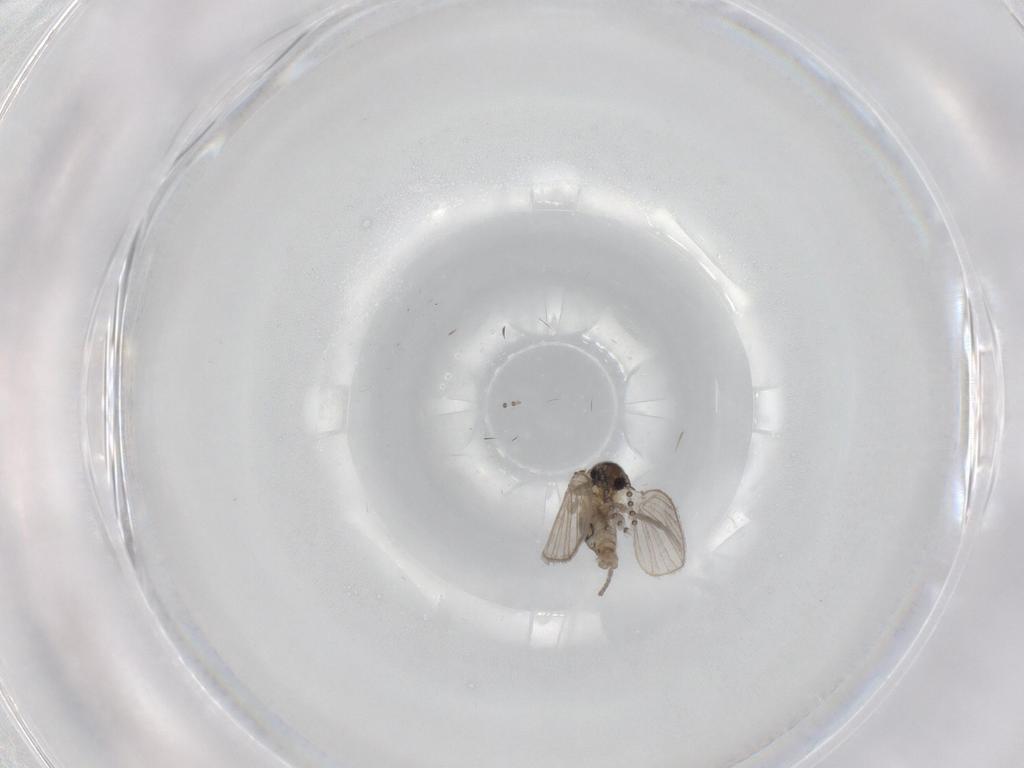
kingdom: Animalia
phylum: Arthropoda
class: Insecta
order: Diptera
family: Psychodidae
